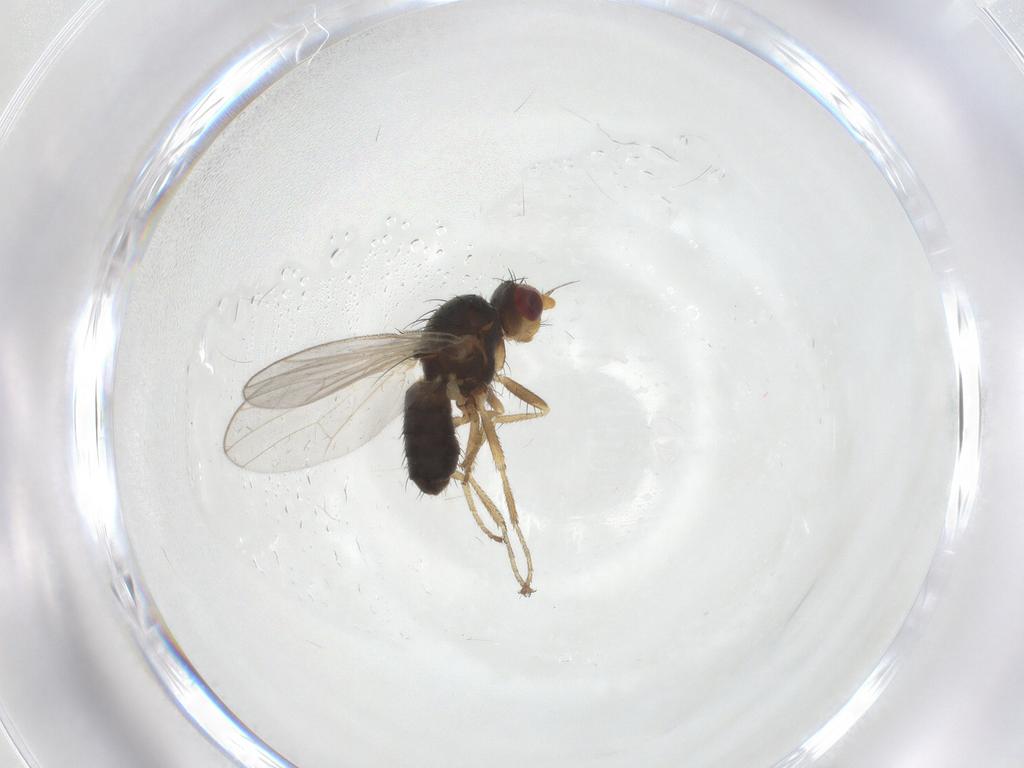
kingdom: Animalia
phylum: Arthropoda
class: Insecta
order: Diptera
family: Heleomyzidae
